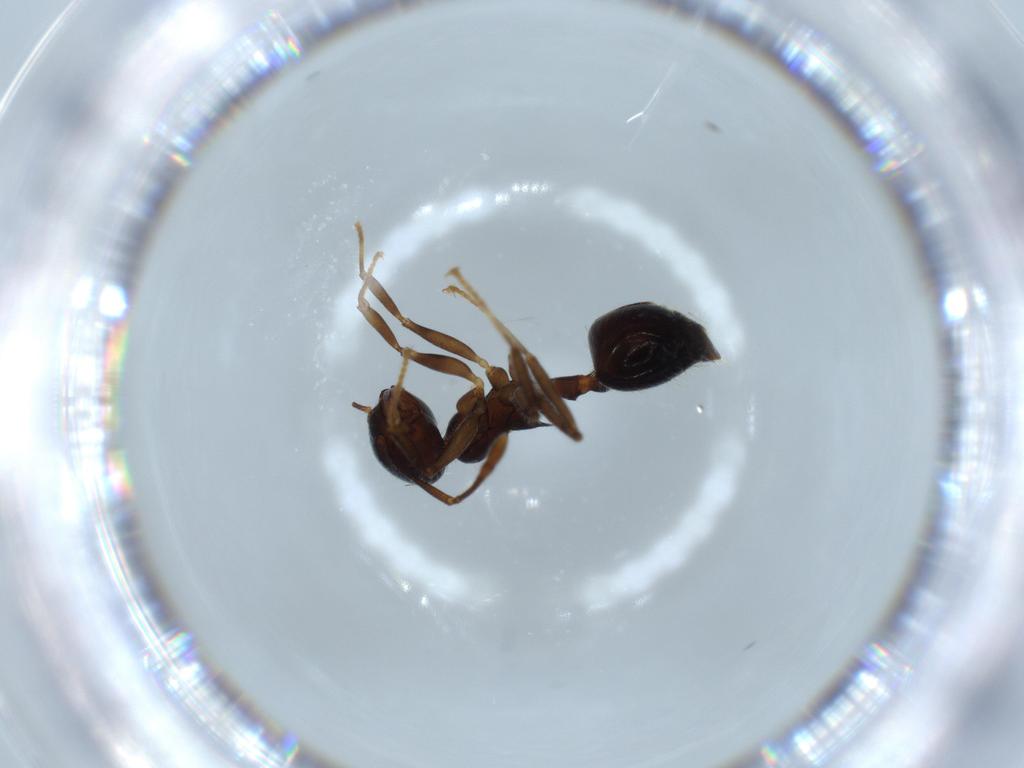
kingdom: Animalia
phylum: Arthropoda
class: Insecta
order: Hymenoptera
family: Formicidae
